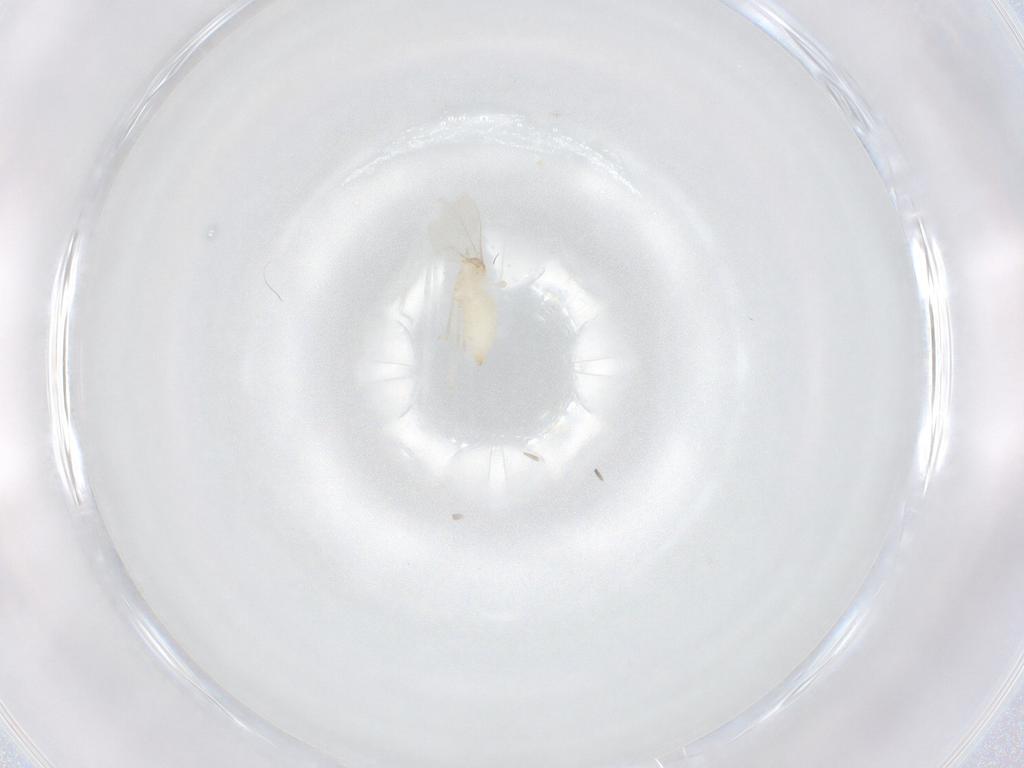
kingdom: Animalia
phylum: Arthropoda
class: Insecta
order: Diptera
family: Cecidomyiidae
